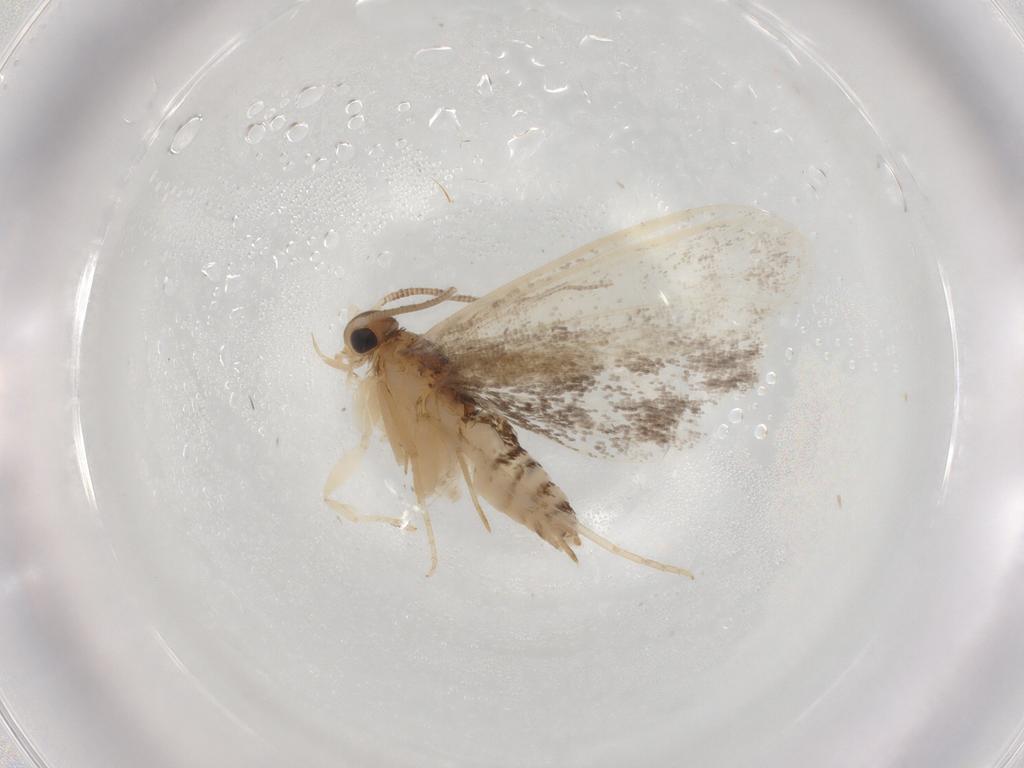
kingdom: Animalia
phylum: Arthropoda
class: Insecta
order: Lepidoptera
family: Dryadaulidae
